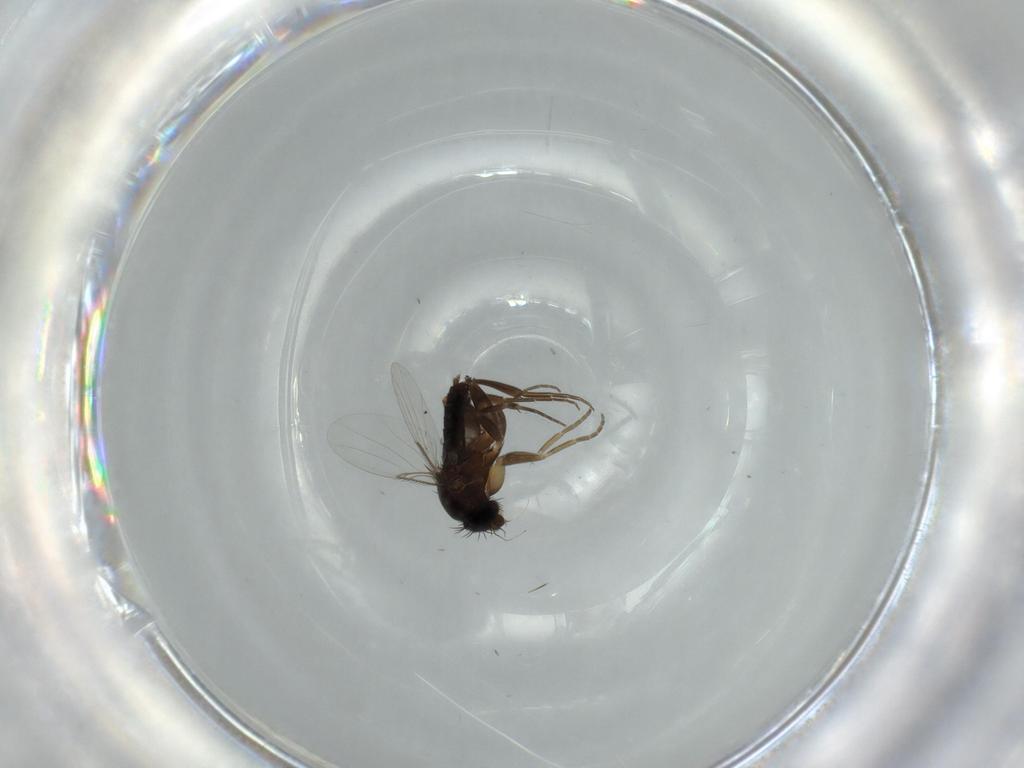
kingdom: Animalia
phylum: Arthropoda
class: Insecta
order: Diptera
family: Phoridae
